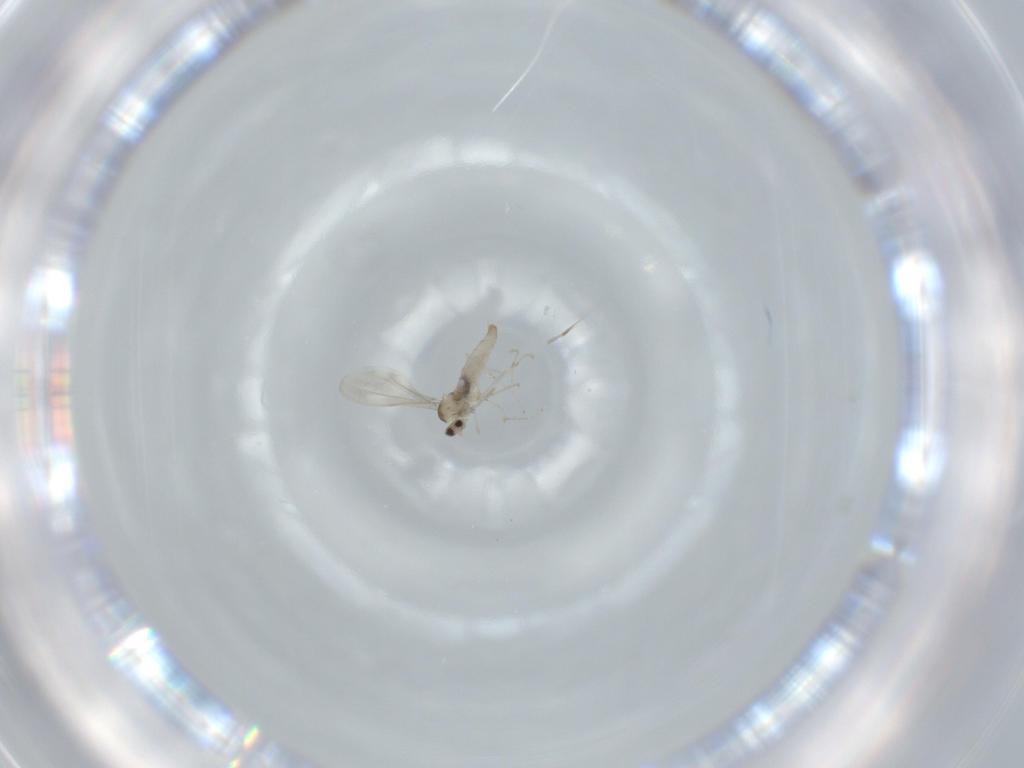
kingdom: Animalia
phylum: Arthropoda
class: Insecta
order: Diptera
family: Cecidomyiidae
